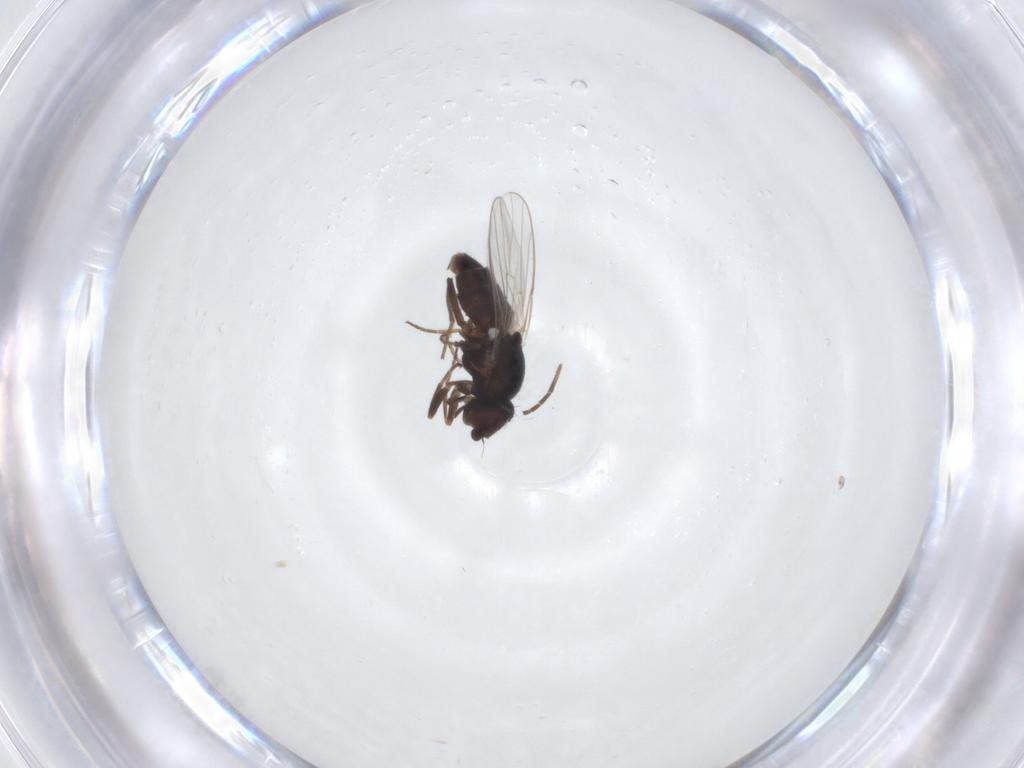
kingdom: Animalia
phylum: Arthropoda
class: Insecta
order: Diptera
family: Chloropidae
